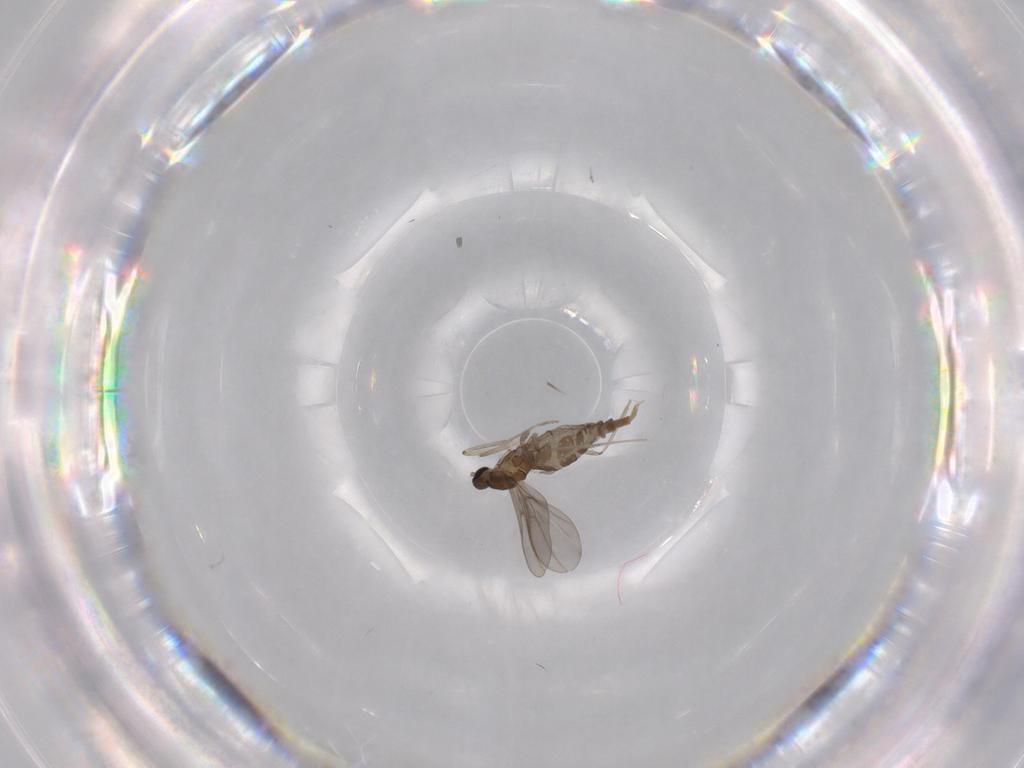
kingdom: Animalia
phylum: Arthropoda
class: Insecta
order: Diptera
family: Cecidomyiidae
